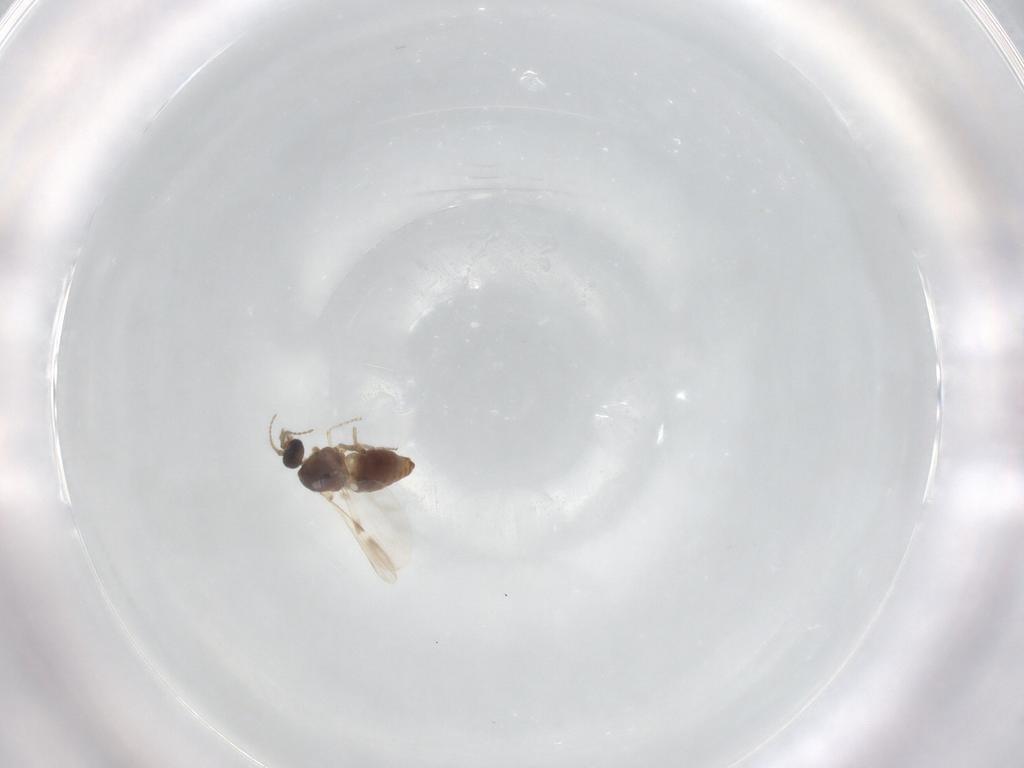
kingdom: Animalia
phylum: Arthropoda
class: Insecta
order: Diptera
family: Ceratopogonidae
